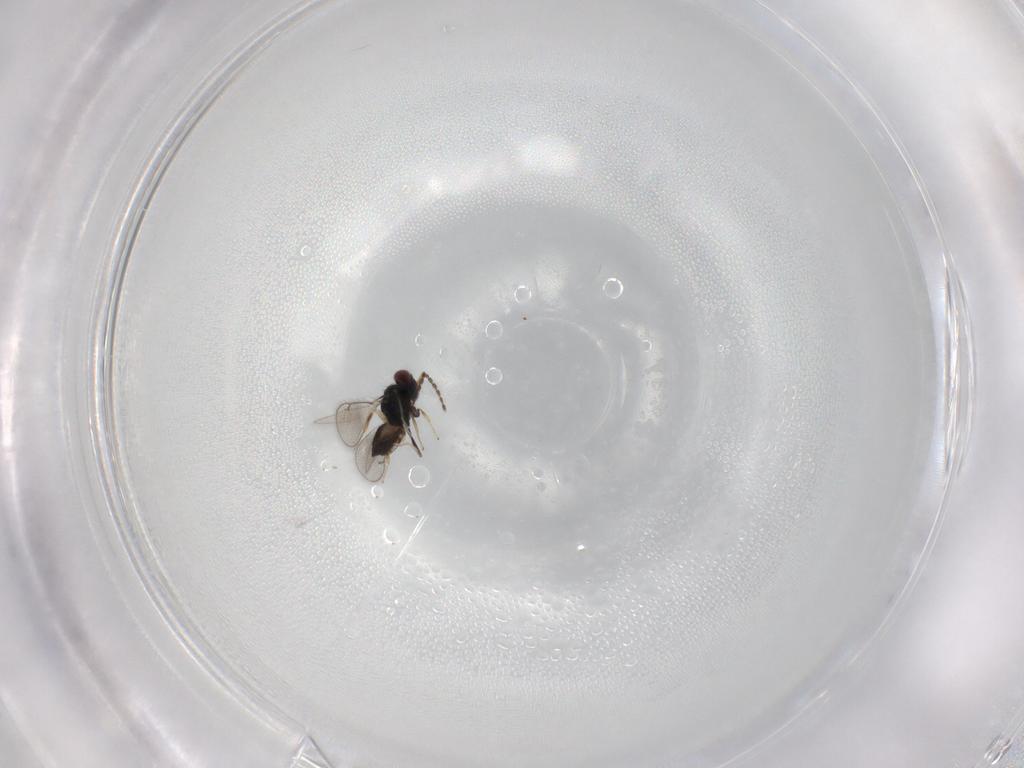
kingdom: Animalia
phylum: Arthropoda
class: Insecta
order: Hymenoptera
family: Eulophidae
